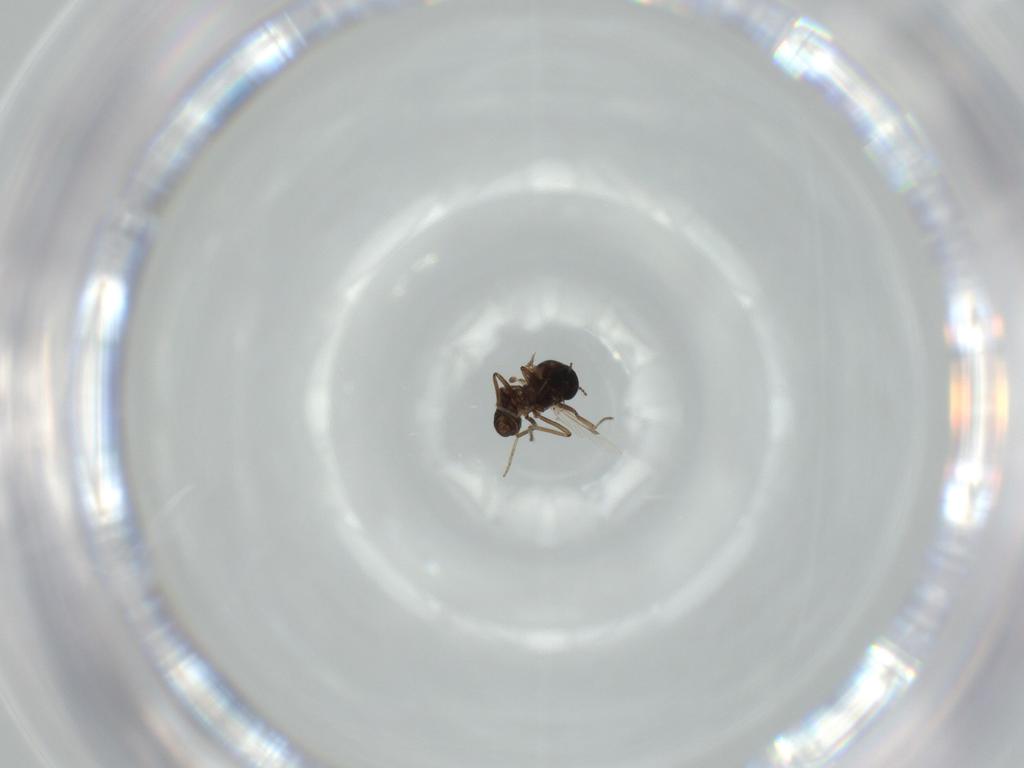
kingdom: Animalia
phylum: Arthropoda
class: Insecta
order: Diptera
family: Ceratopogonidae
